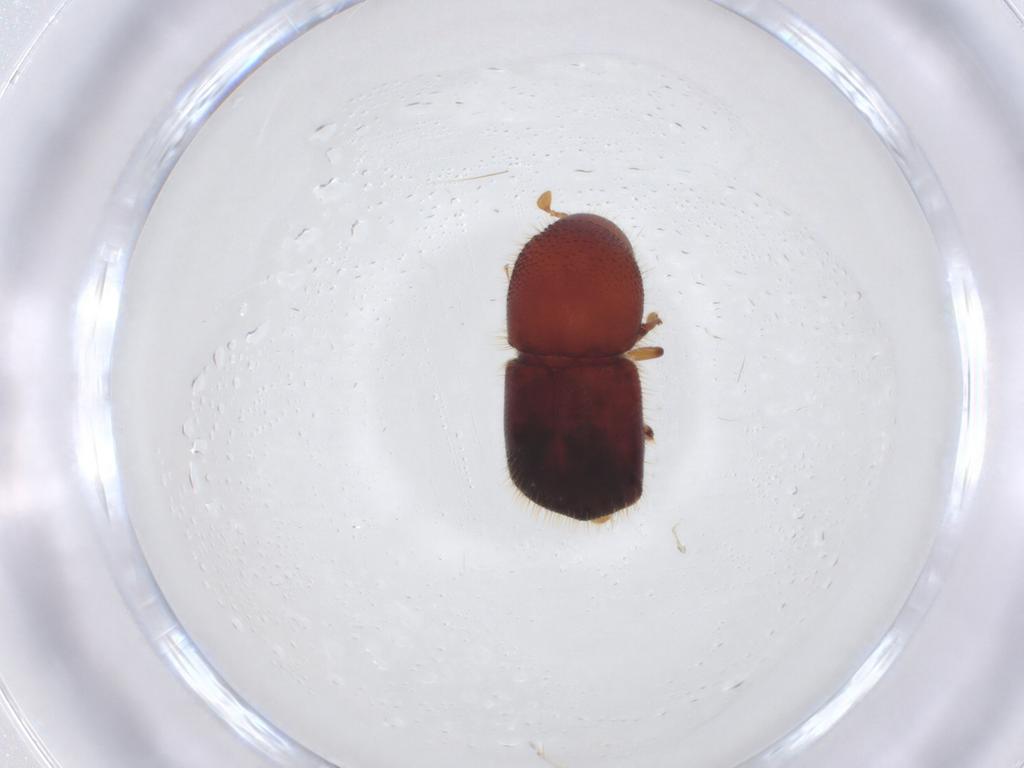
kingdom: Animalia
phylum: Arthropoda
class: Insecta
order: Coleoptera
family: Curculionidae
